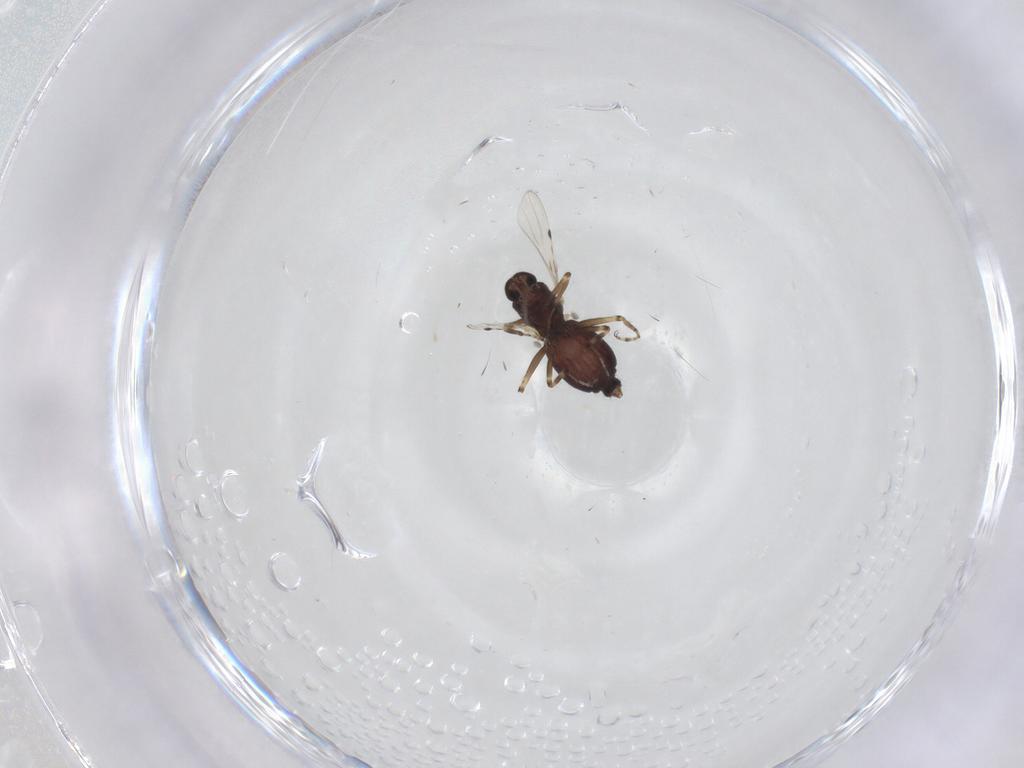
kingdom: Animalia
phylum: Arthropoda
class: Insecta
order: Diptera
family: Ceratopogonidae
